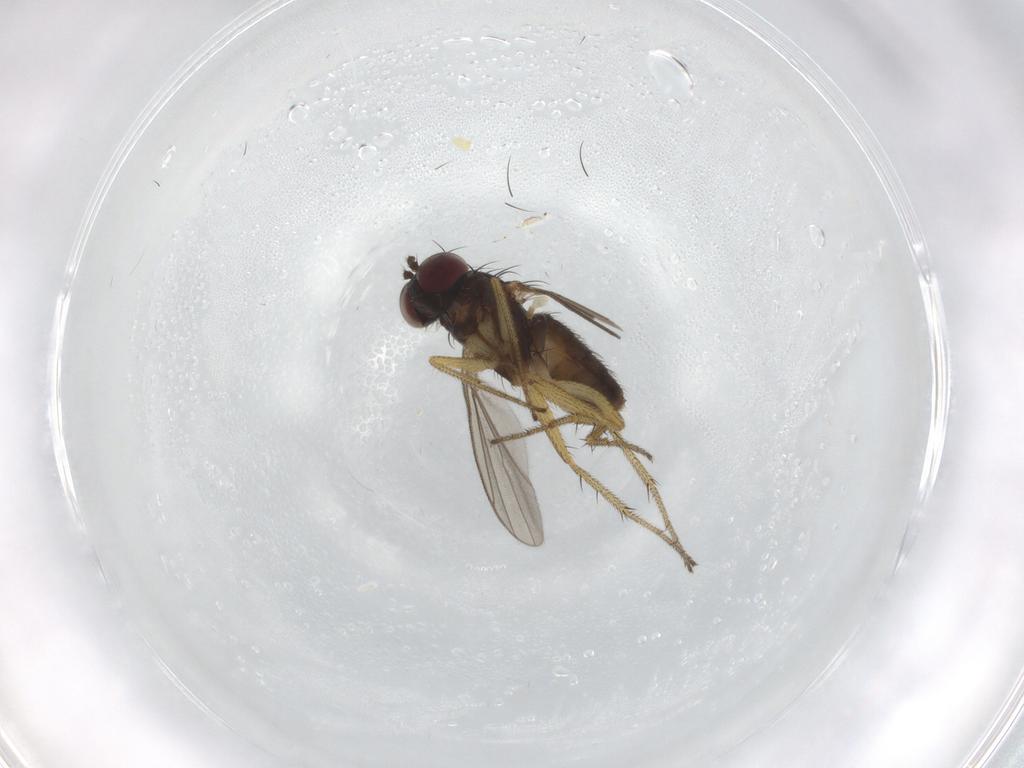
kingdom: Animalia
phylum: Arthropoda
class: Insecta
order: Diptera
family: Dolichopodidae
